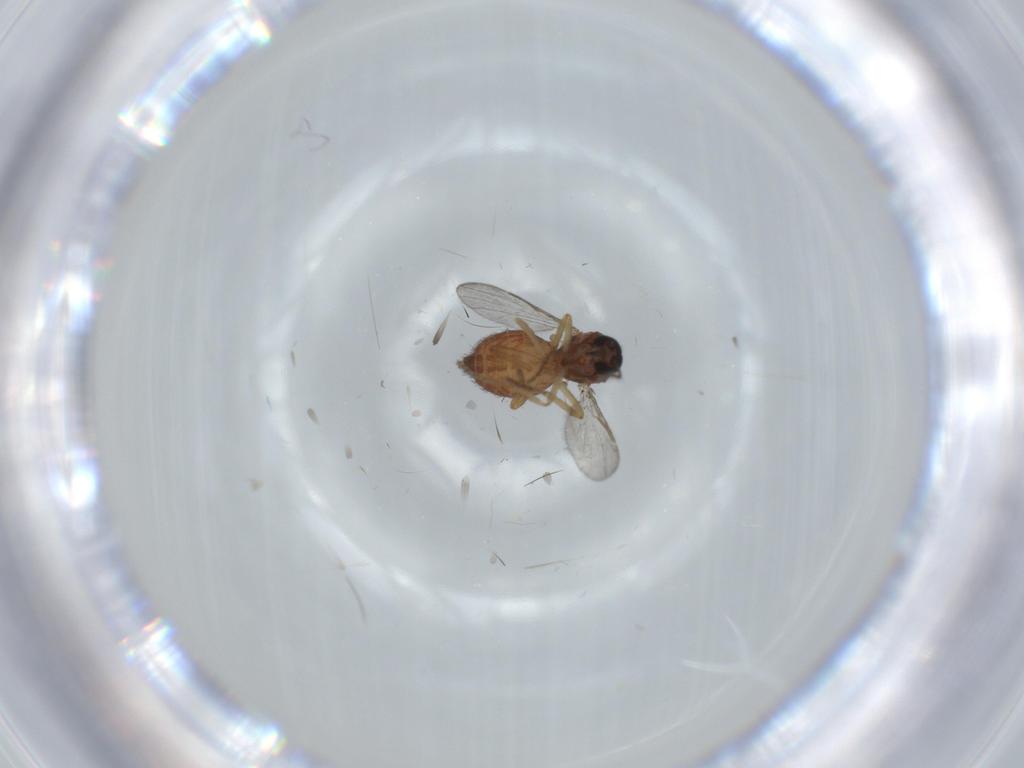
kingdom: Animalia
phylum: Arthropoda
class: Insecta
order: Diptera
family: Ceratopogonidae
